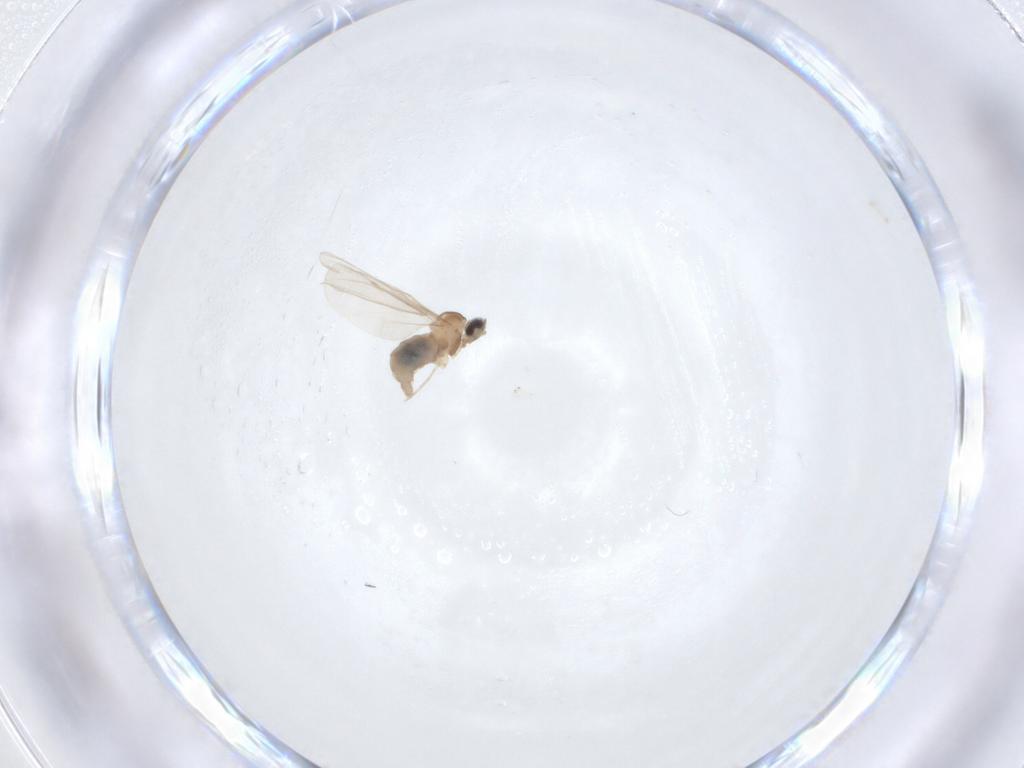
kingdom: Animalia
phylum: Arthropoda
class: Insecta
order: Diptera
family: Cecidomyiidae
